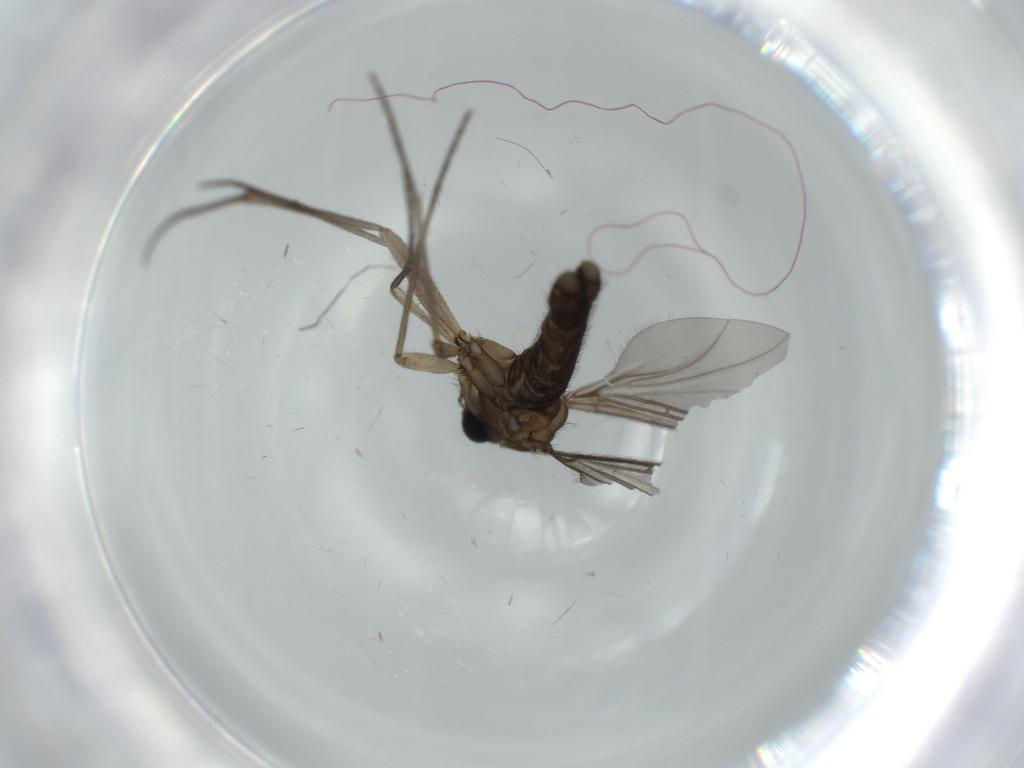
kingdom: Animalia
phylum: Arthropoda
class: Insecta
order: Diptera
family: Sciaridae
